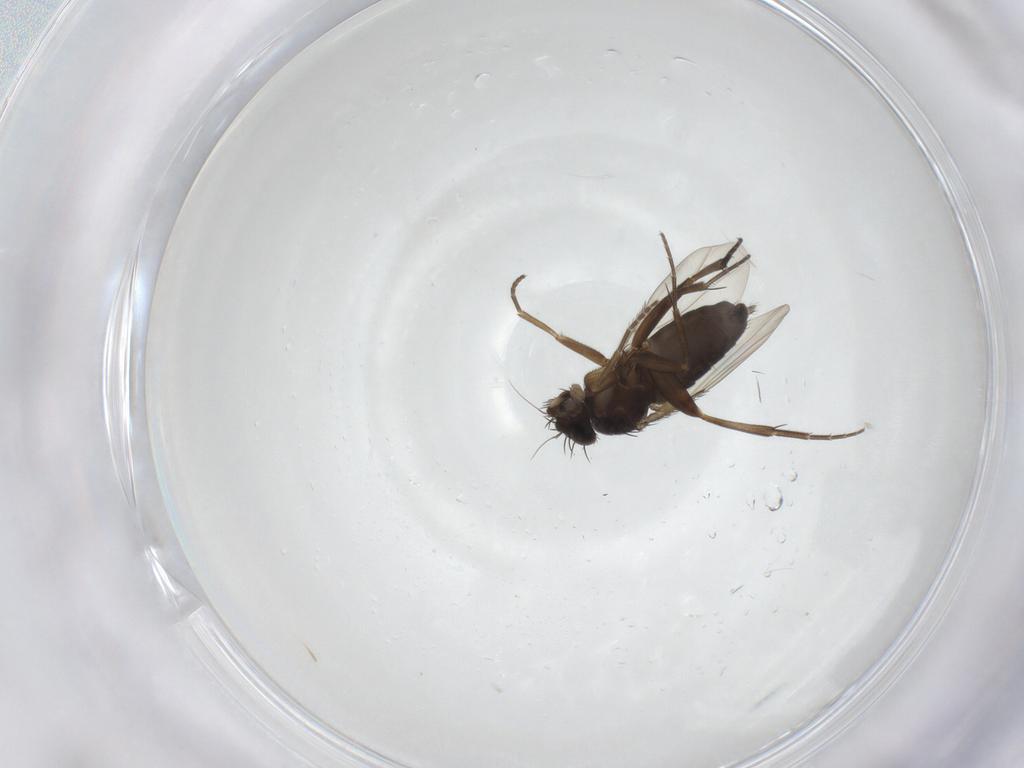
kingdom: Animalia
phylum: Arthropoda
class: Insecta
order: Diptera
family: Phoridae
